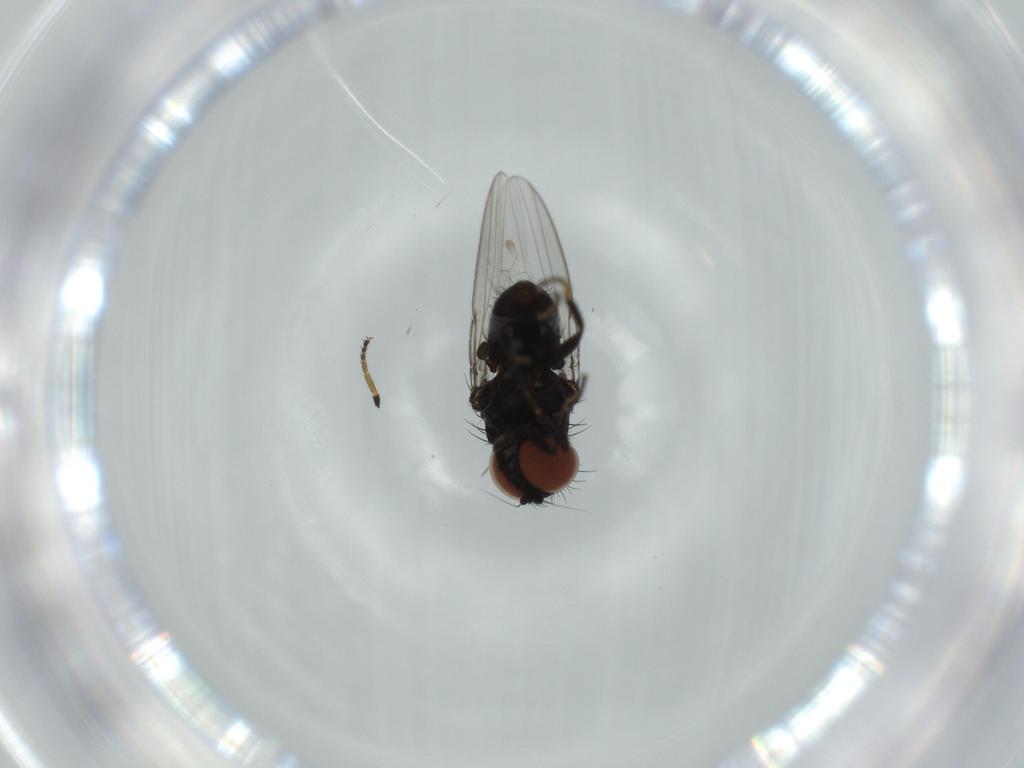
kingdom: Animalia
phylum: Arthropoda
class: Insecta
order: Diptera
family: Milichiidae
